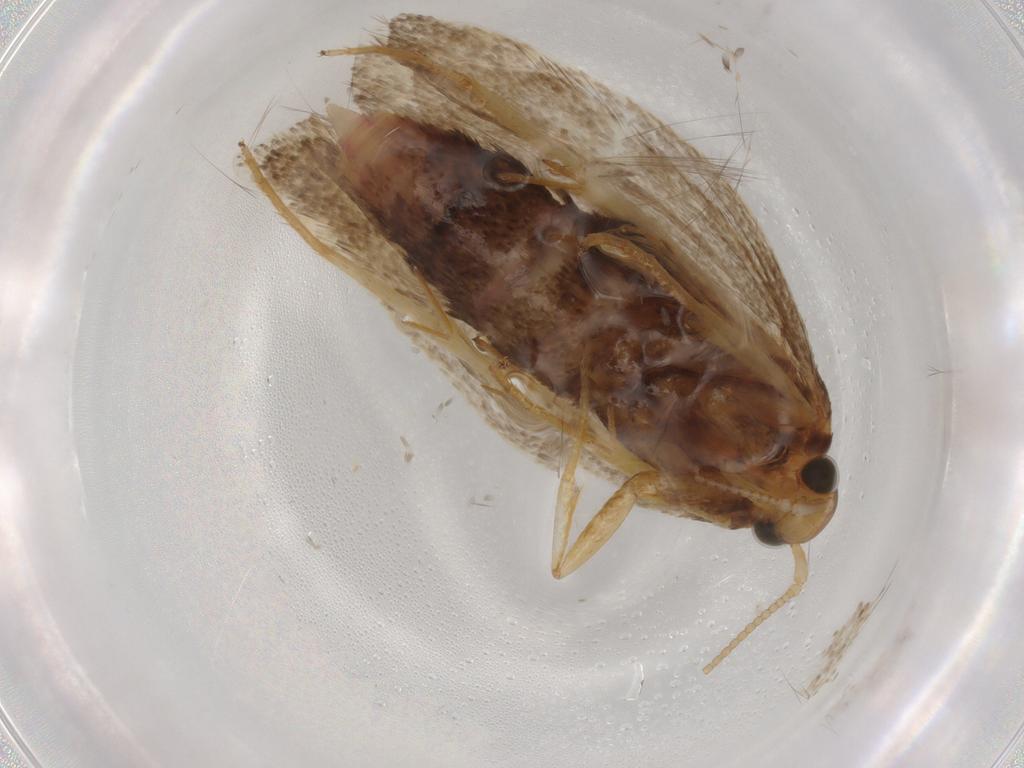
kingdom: Animalia
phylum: Arthropoda
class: Insecta
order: Lepidoptera
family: Lecithoceridae
